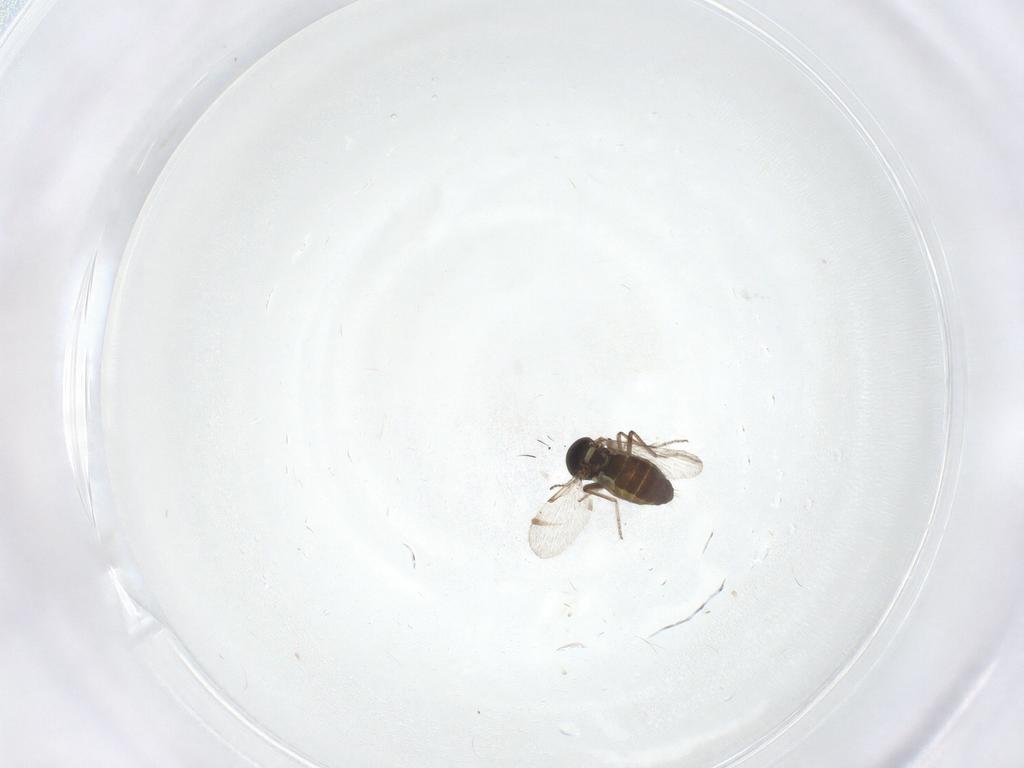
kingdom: Animalia
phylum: Arthropoda
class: Insecta
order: Diptera
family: Ceratopogonidae
